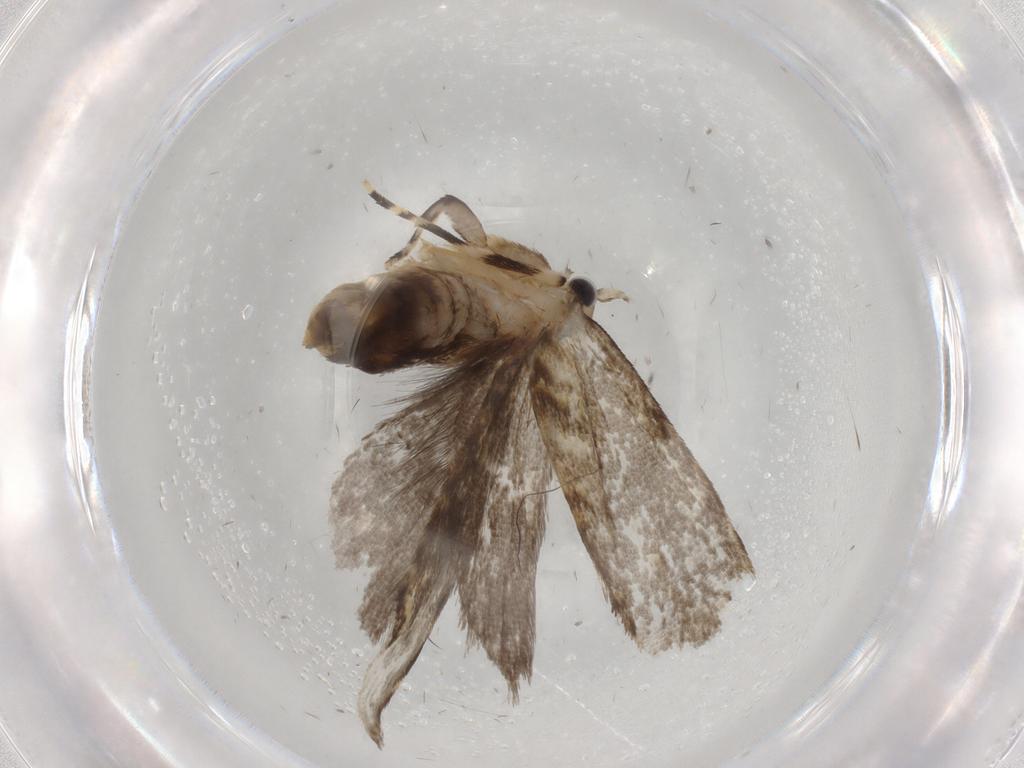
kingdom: Animalia
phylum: Arthropoda
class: Insecta
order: Lepidoptera
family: Tineidae
